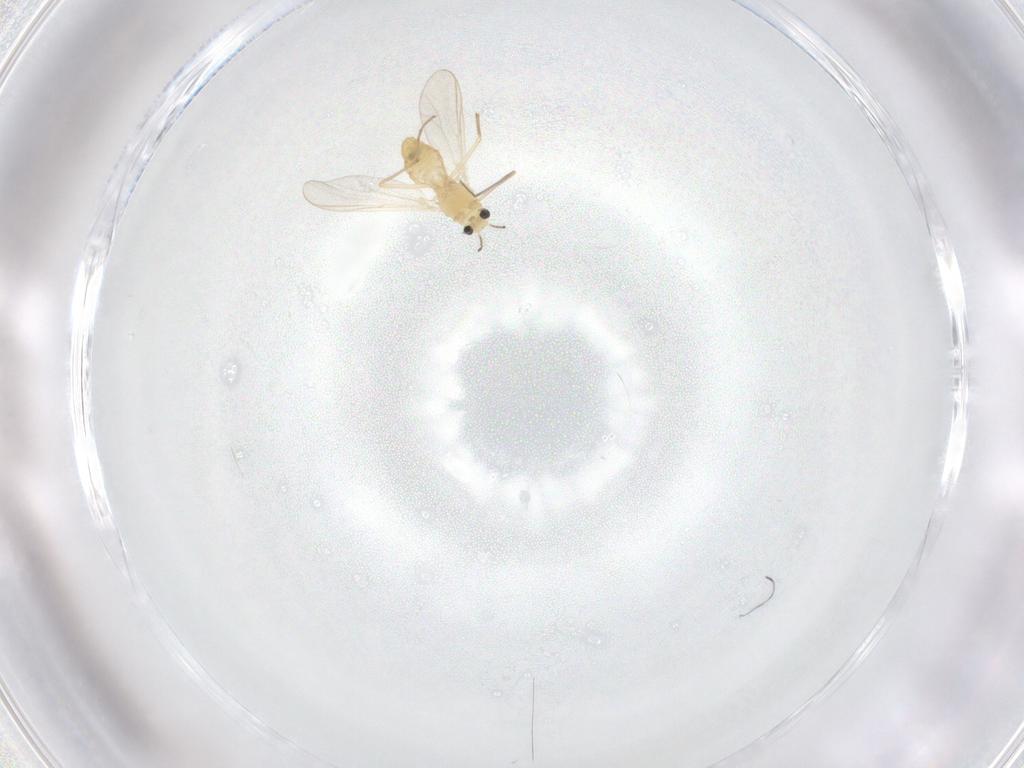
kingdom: Animalia
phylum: Arthropoda
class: Insecta
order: Diptera
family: Chironomidae
